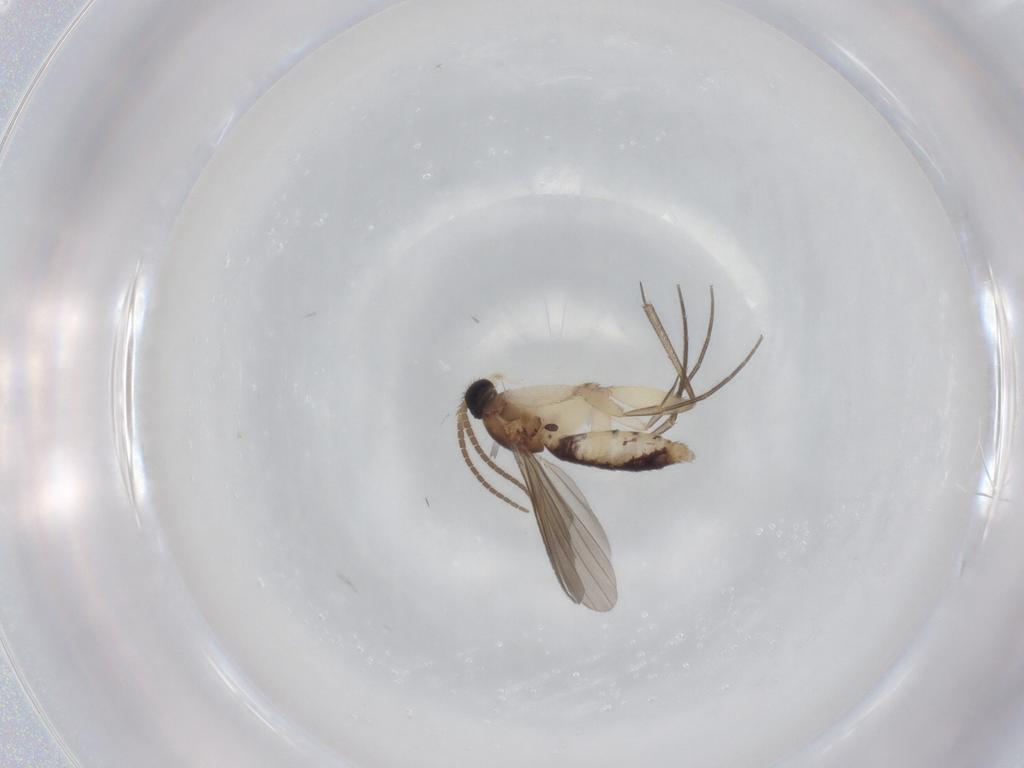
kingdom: Animalia
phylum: Arthropoda
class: Insecta
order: Diptera
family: Mycetophilidae
